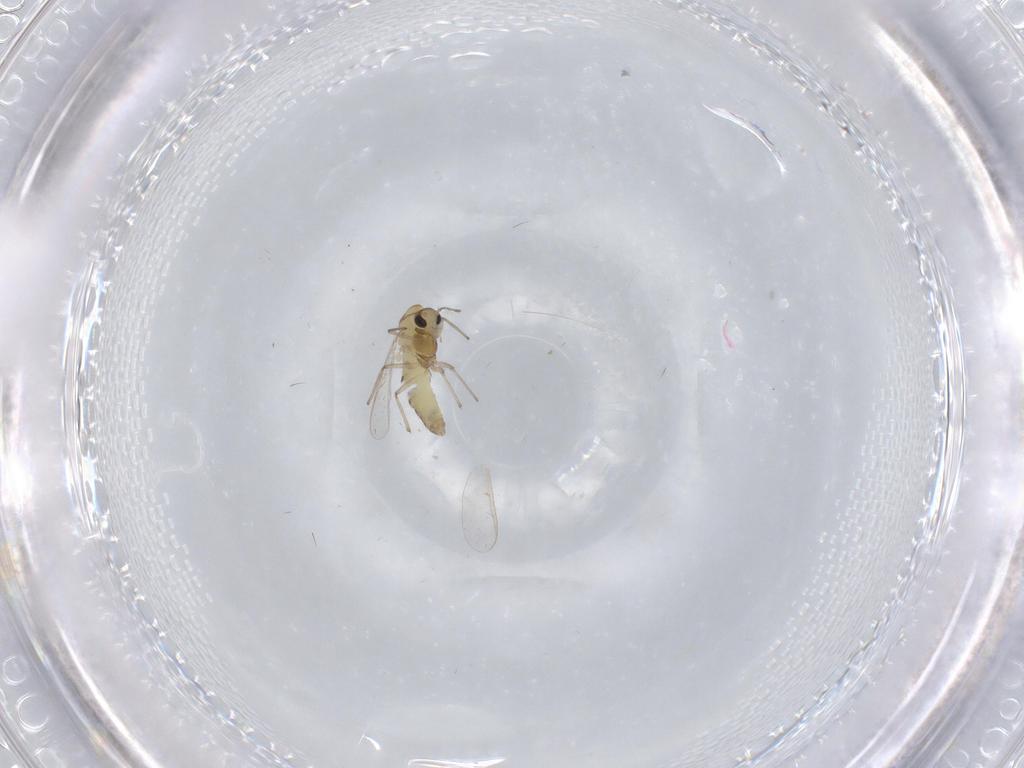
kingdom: Animalia
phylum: Arthropoda
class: Insecta
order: Diptera
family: Chironomidae
